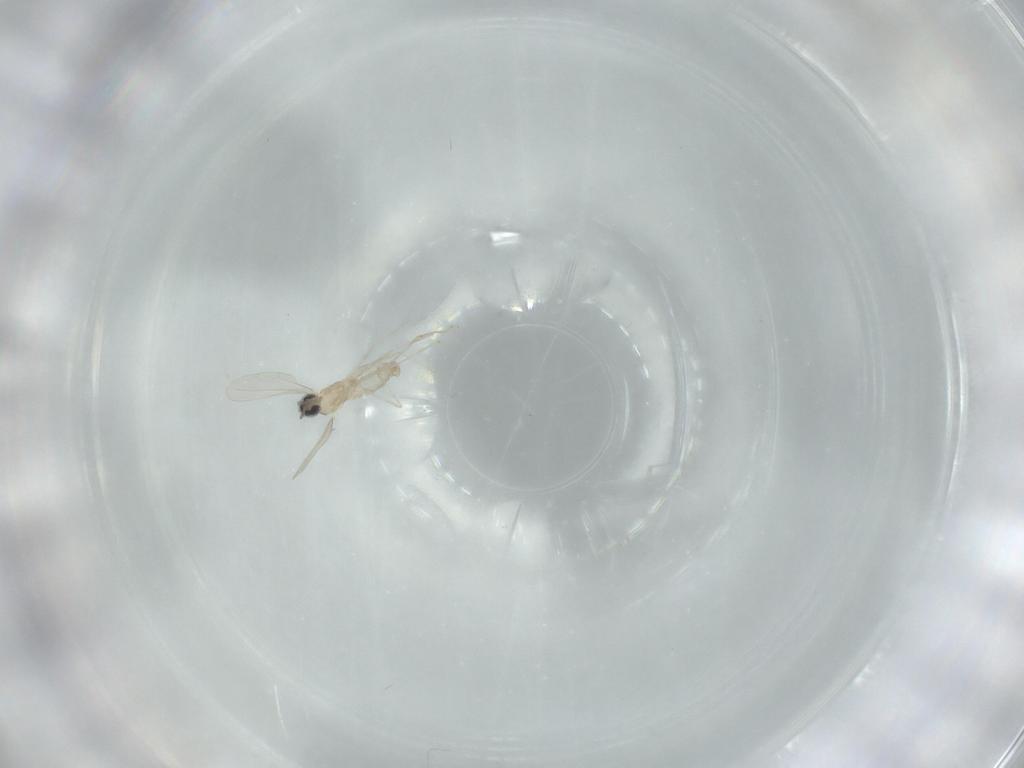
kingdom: Animalia
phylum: Arthropoda
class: Insecta
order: Diptera
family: Cecidomyiidae
